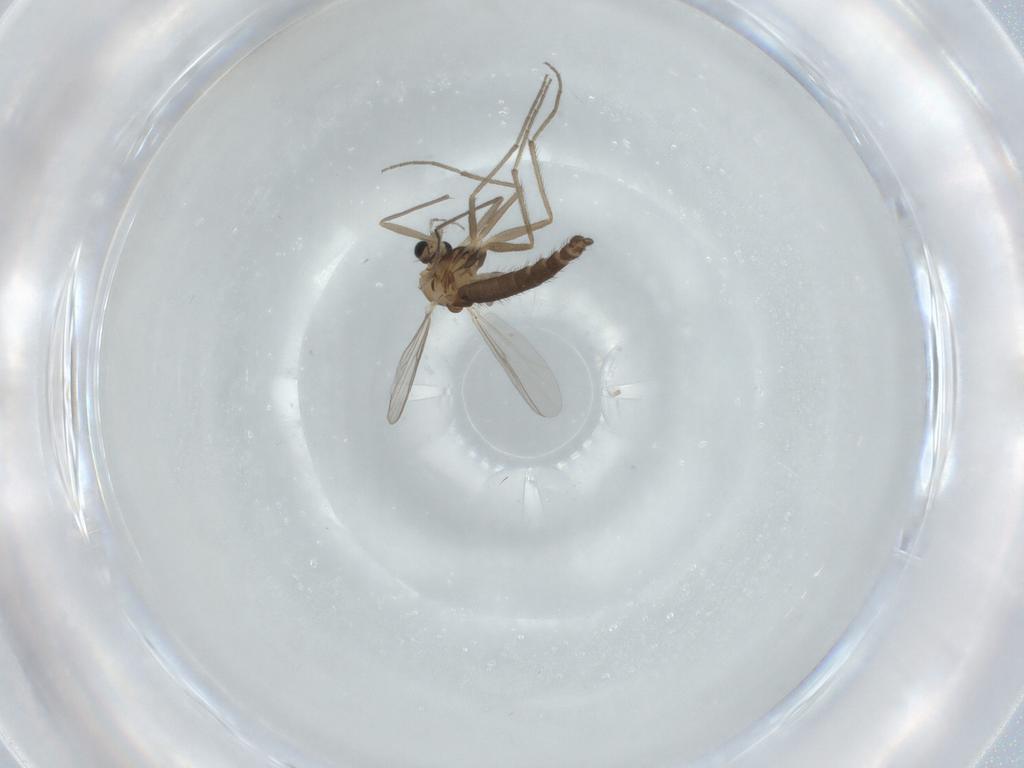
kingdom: Animalia
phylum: Arthropoda
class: Insecta
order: Diptera
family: Chironomidae
